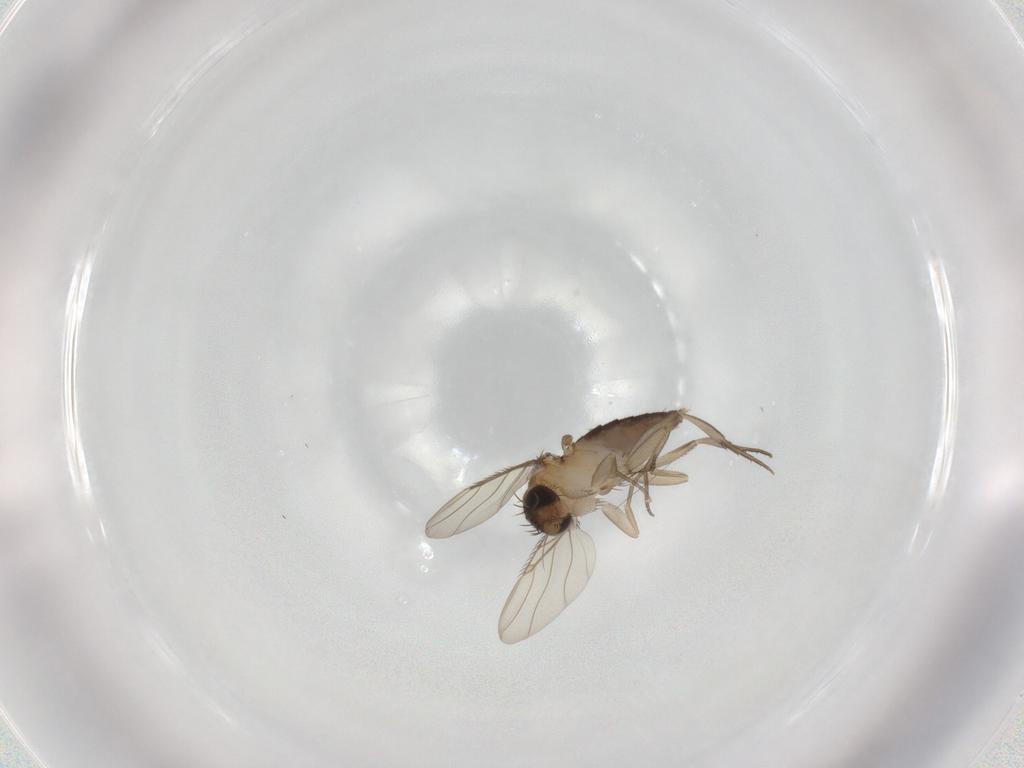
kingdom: Animalia
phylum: Arthropoda
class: Insecta
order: Diptera
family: Phoridae
